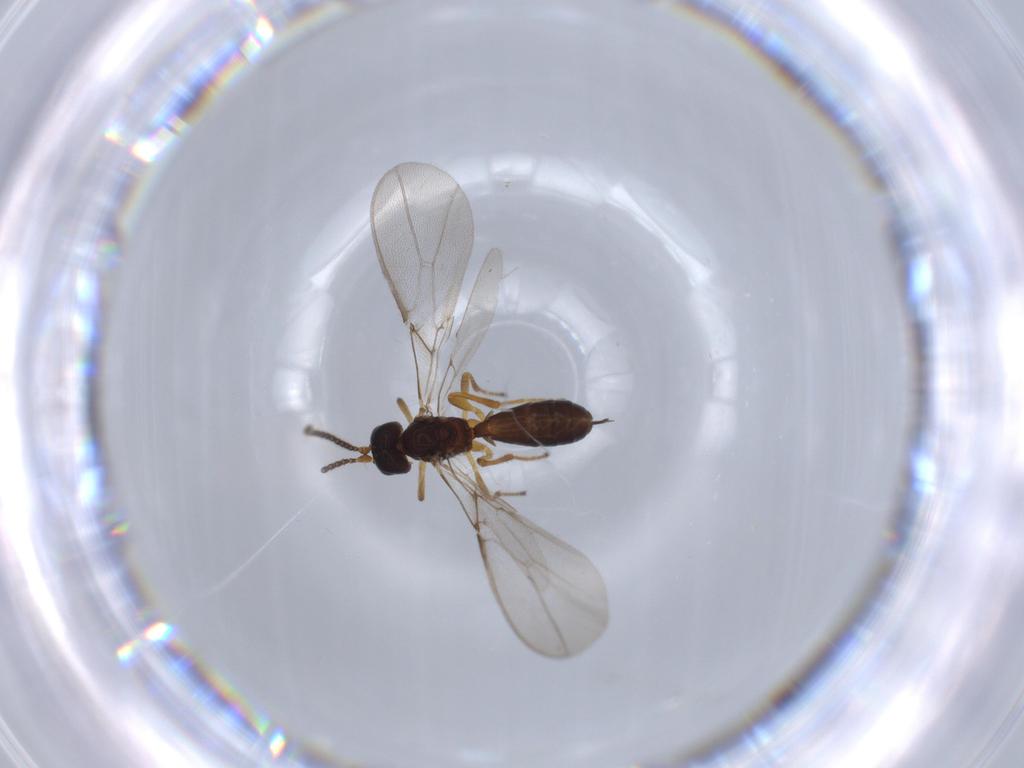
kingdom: Animalia
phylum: Arthropoda
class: Insecta
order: Hymenoptera
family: Braconidae
